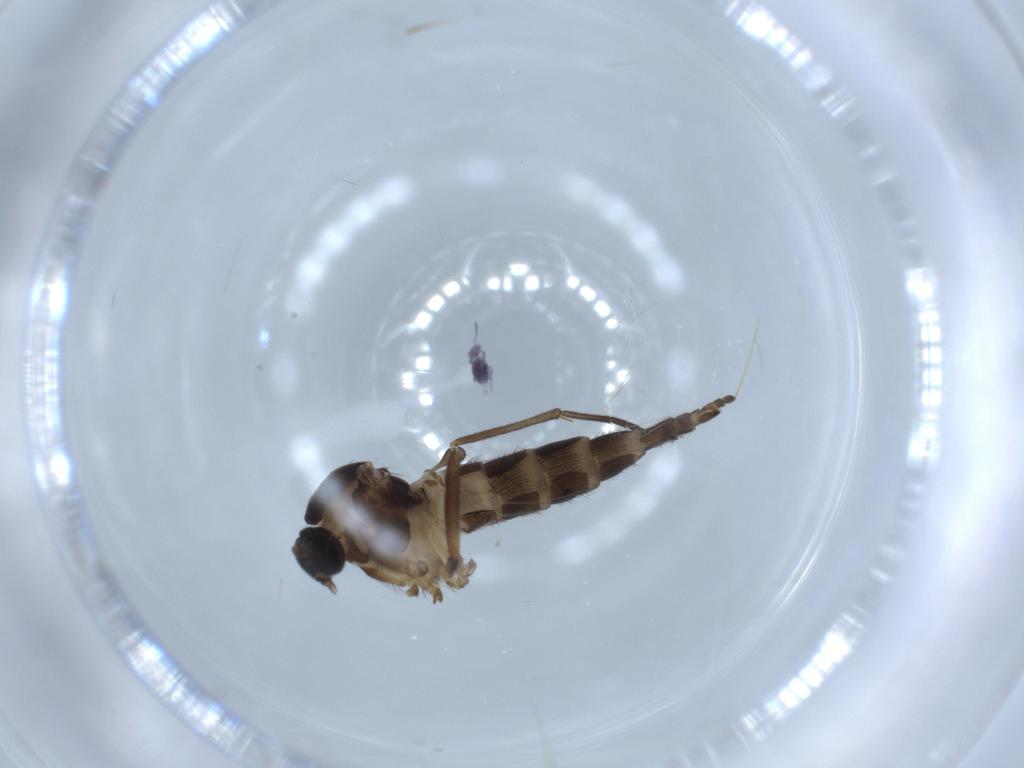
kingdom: Animalia
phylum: Arthropoda
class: Insecta
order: Diptera
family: Sciaridae
